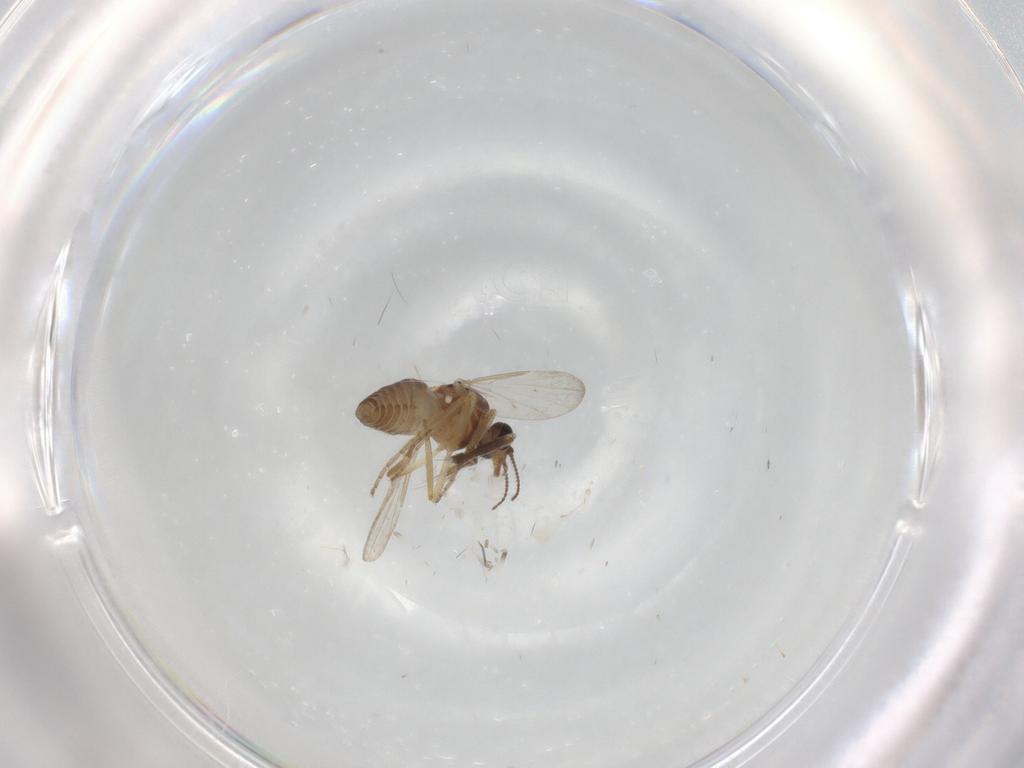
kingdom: Animalia
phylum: Arthropoda
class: Insecta
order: Diptera
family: Ceratopogonidae
